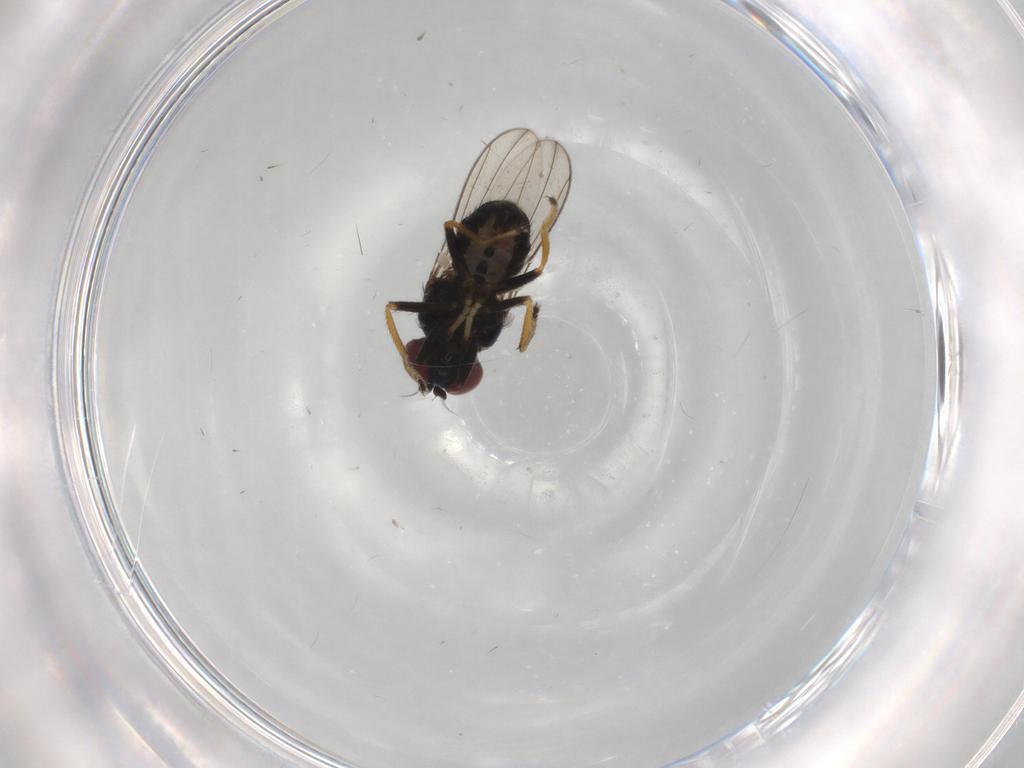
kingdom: Animalia
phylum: Arthropoda
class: Insecta
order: Diptera
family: Ephydridae
